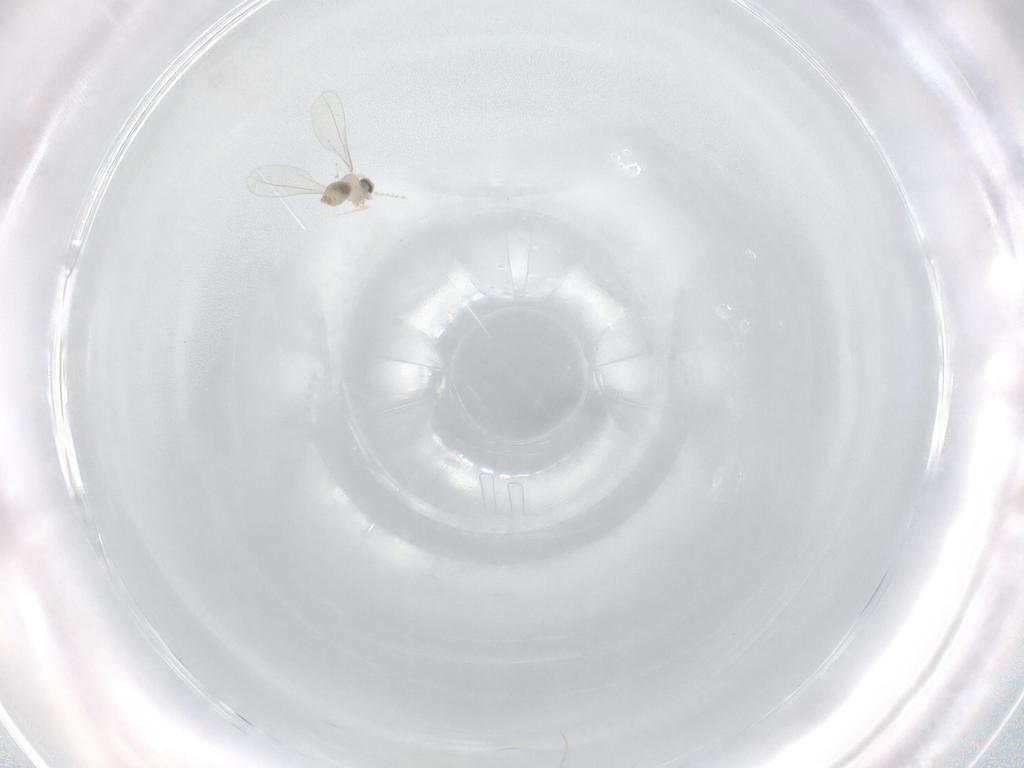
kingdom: Animalia
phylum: Arthropoda
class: Insecta
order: Diptera
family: Cecidomyiidae
